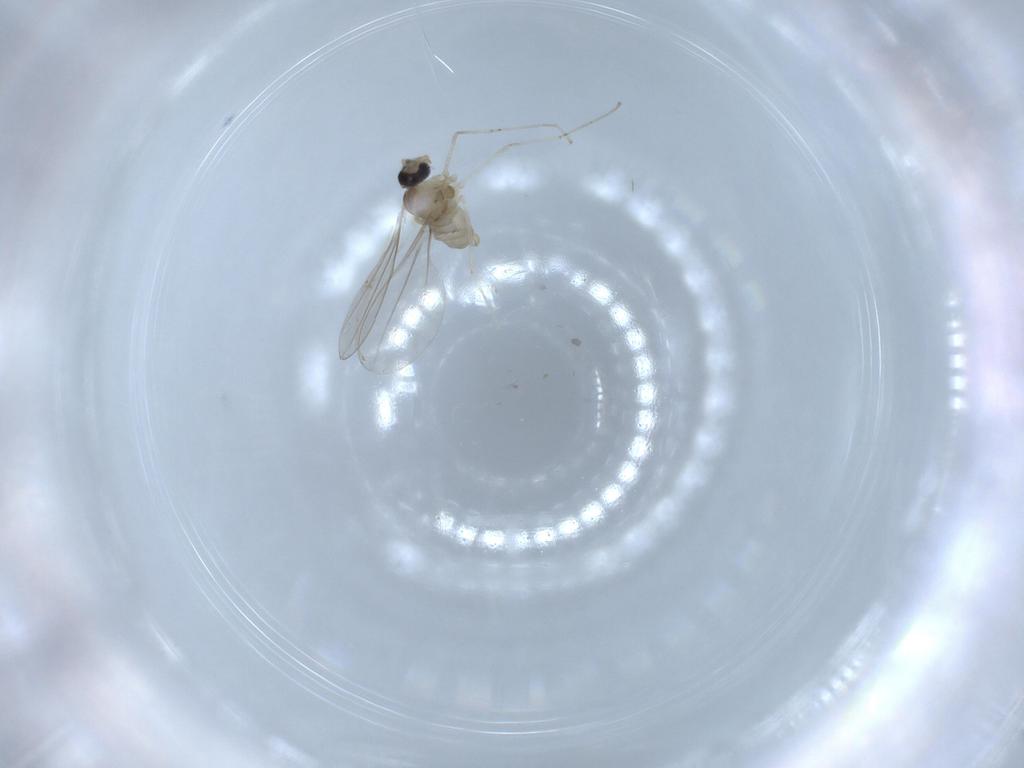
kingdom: Animalia
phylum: Arthropoda
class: Insecta
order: Diptera
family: Cecidomyiidae
